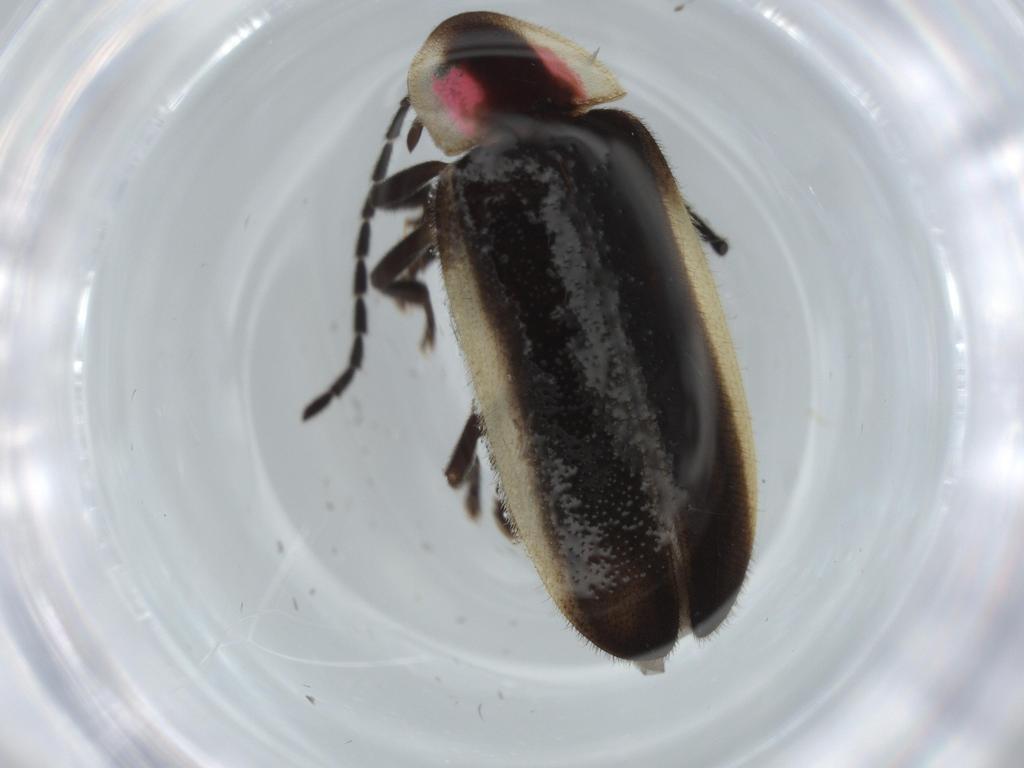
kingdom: Animalia
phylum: Arthropoda
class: Insecta
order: Coleoptera
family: Lampyridae
